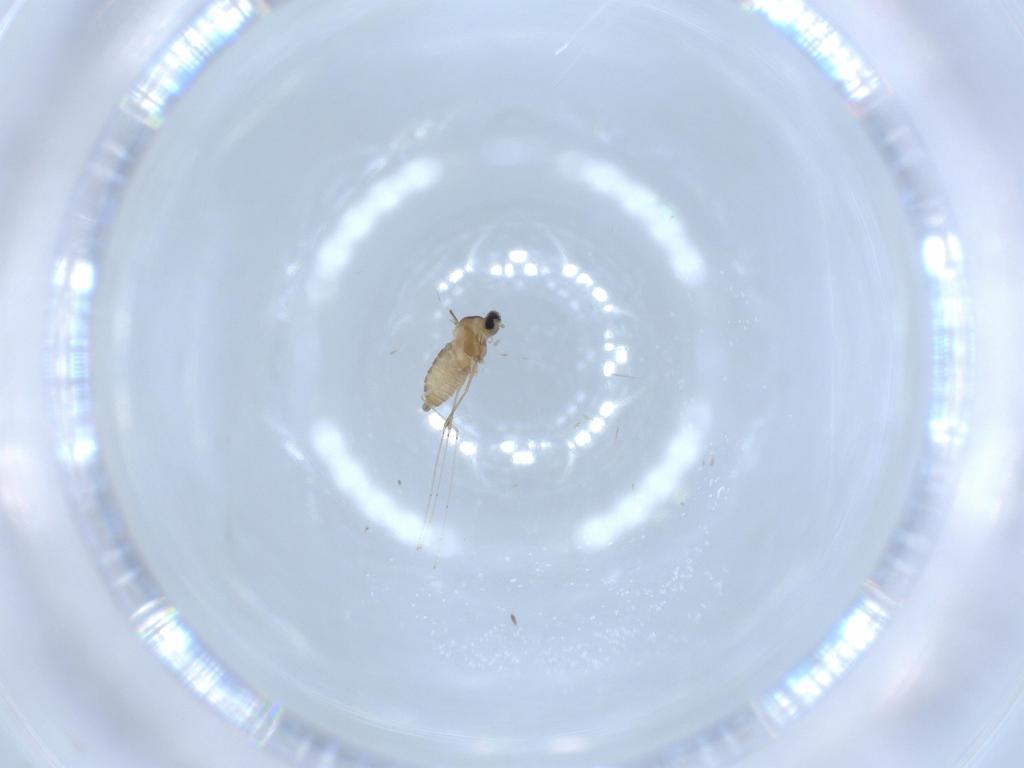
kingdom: Animalia
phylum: Arthropoda
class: Insecta
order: Diptera
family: Cecidomyiidae
